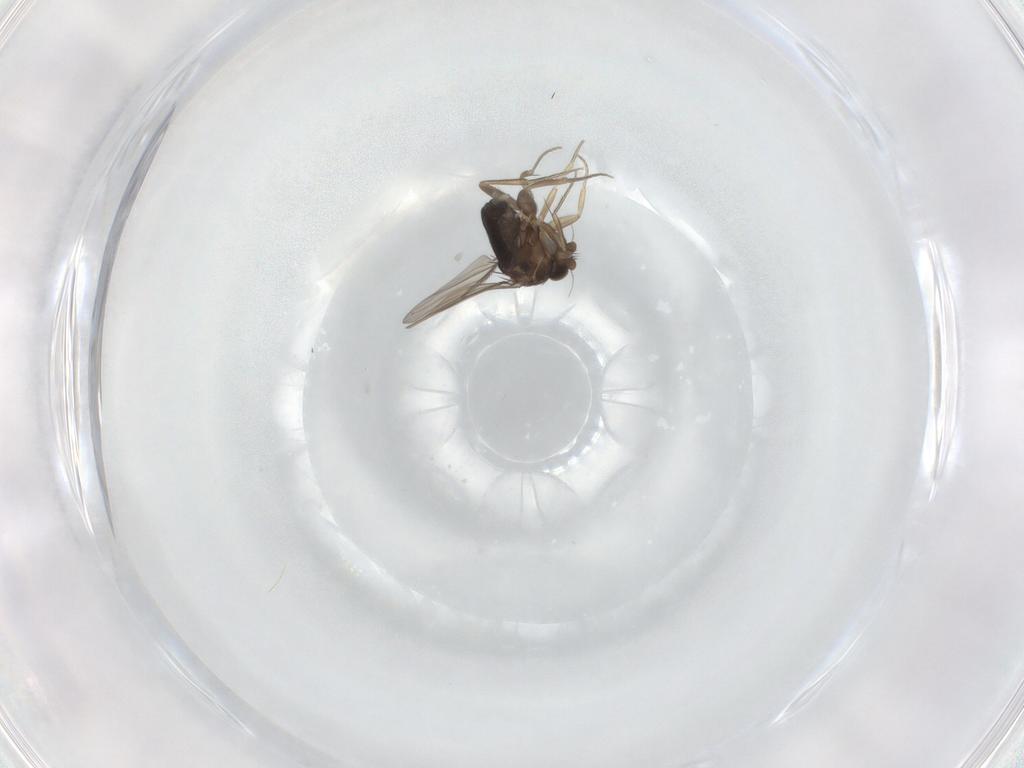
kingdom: Animalia
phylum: Arthropoda
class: Insecta
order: Diptera
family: Phoridae
